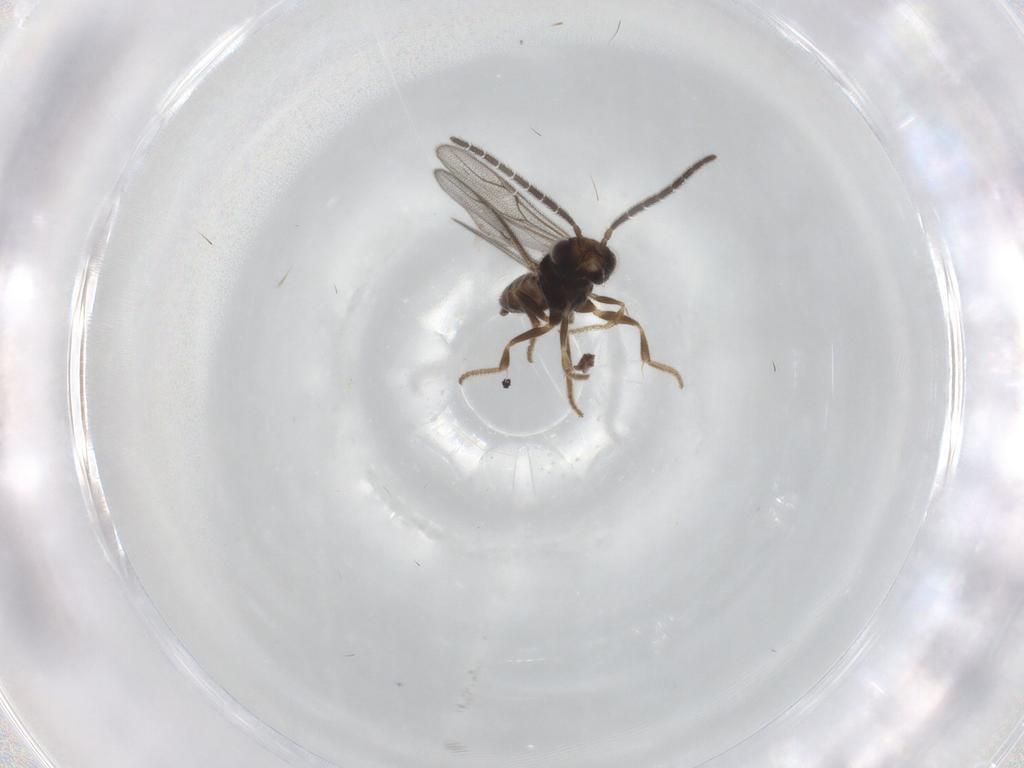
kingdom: Animalia
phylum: Arthropoda
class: Insecta
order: Hymenoptera
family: Dryinidae
